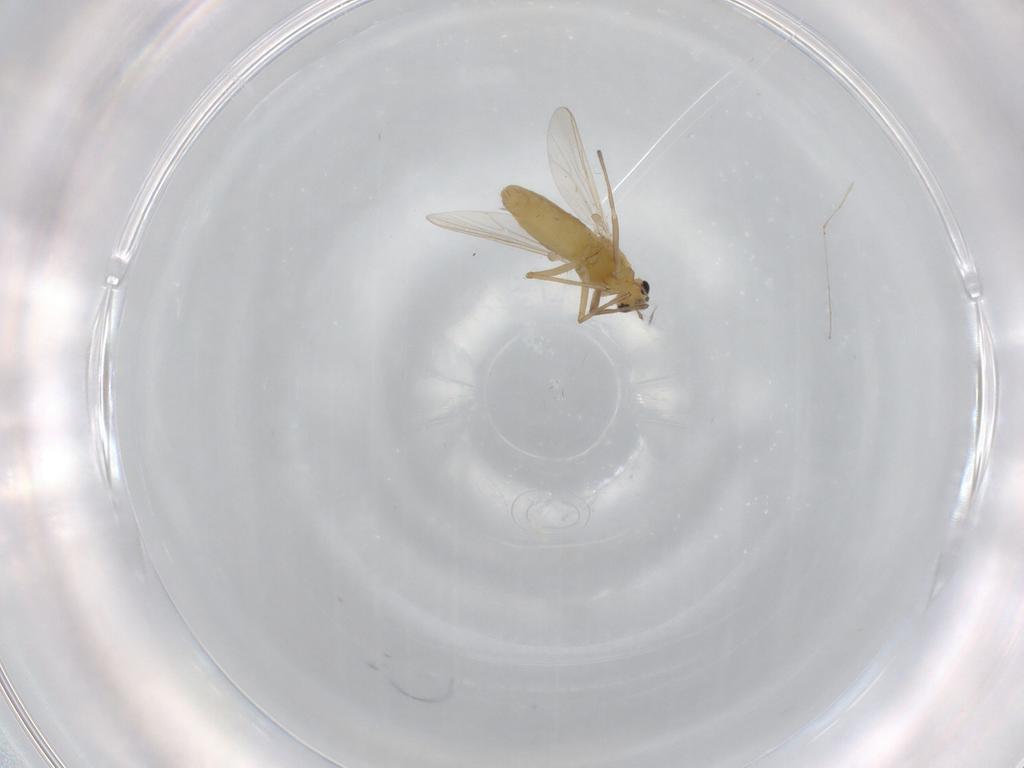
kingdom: Animalia
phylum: Arthropoda
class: Insecta
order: Diptera
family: Chironomidae
